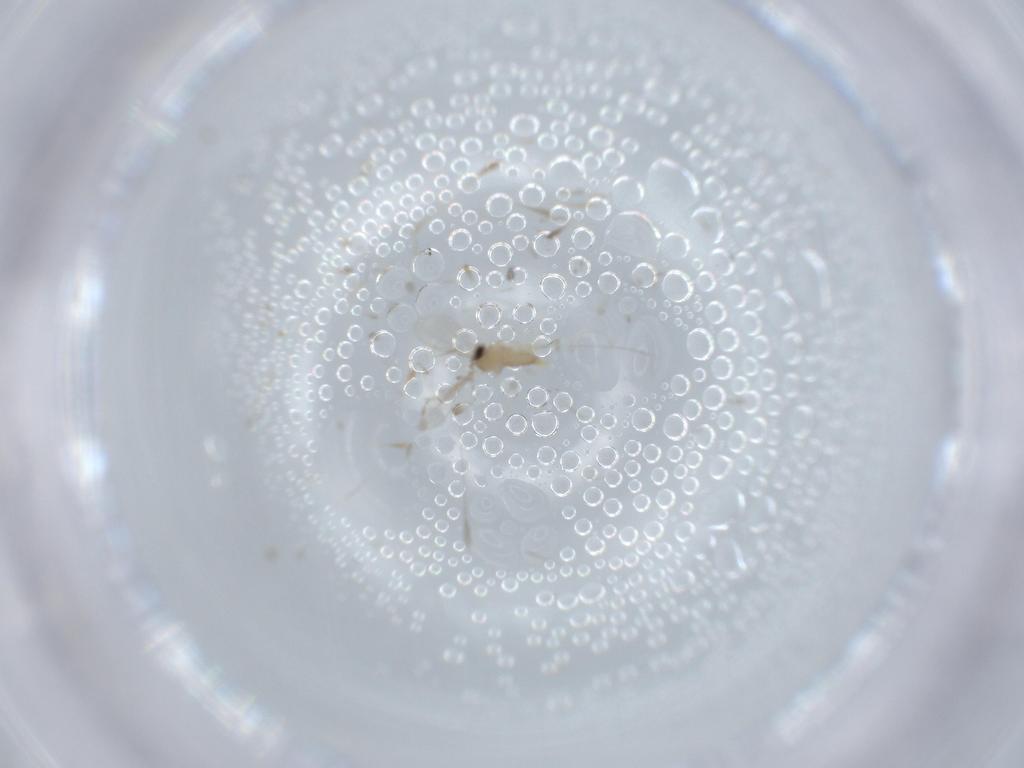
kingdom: Animalia
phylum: Arthropoda
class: Insecta
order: Diptera
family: Cecidomyiidae
